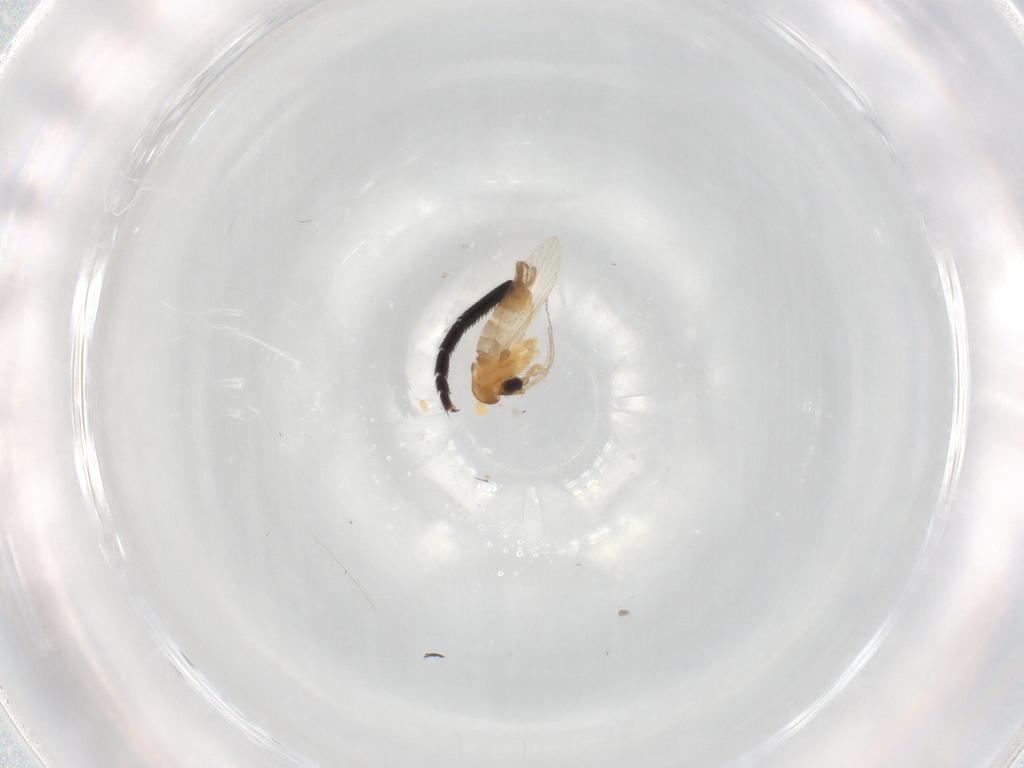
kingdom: Animalia
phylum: Arthropoda
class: Insecta
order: Diptera
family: Psychodidae
